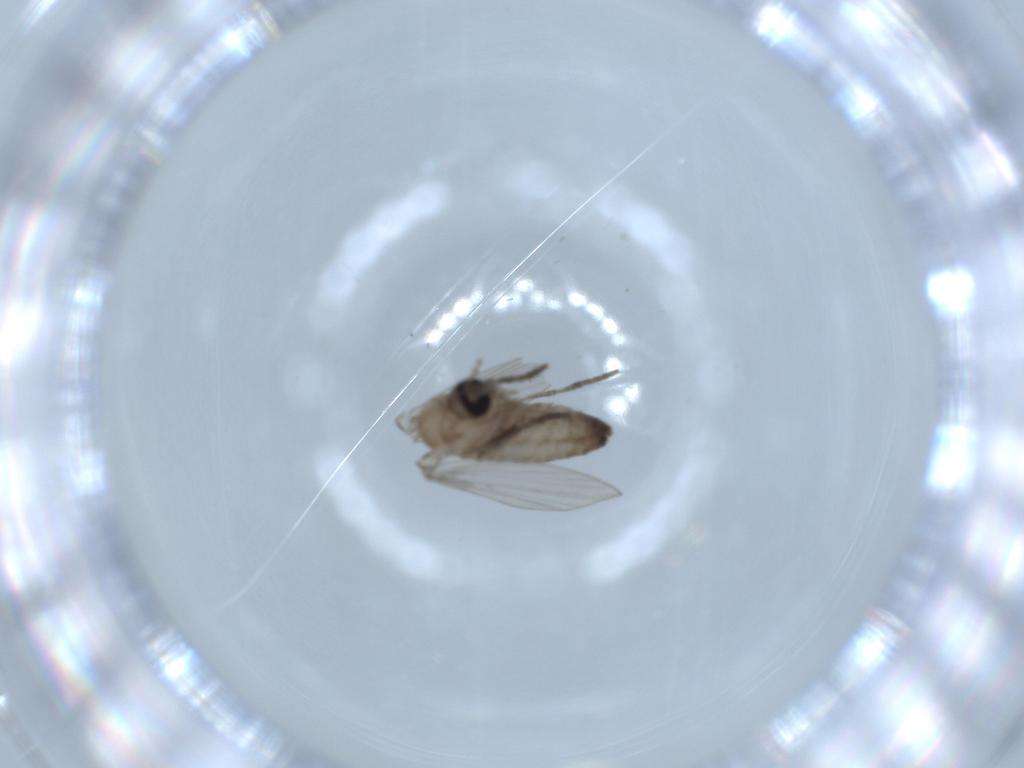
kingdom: Animalia
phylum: Arthropoda
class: Insecta
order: Diptera
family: Psychodidae
